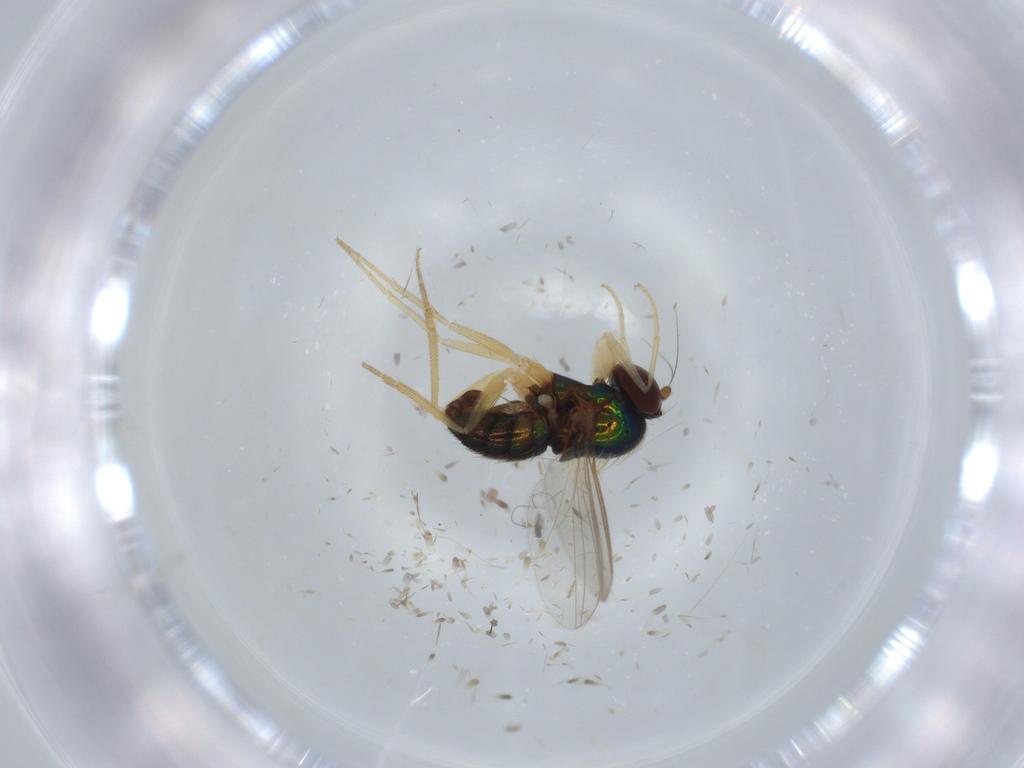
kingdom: Animalia
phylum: Arthropoda
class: Insecta
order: Diptera
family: Dolichopodidae
